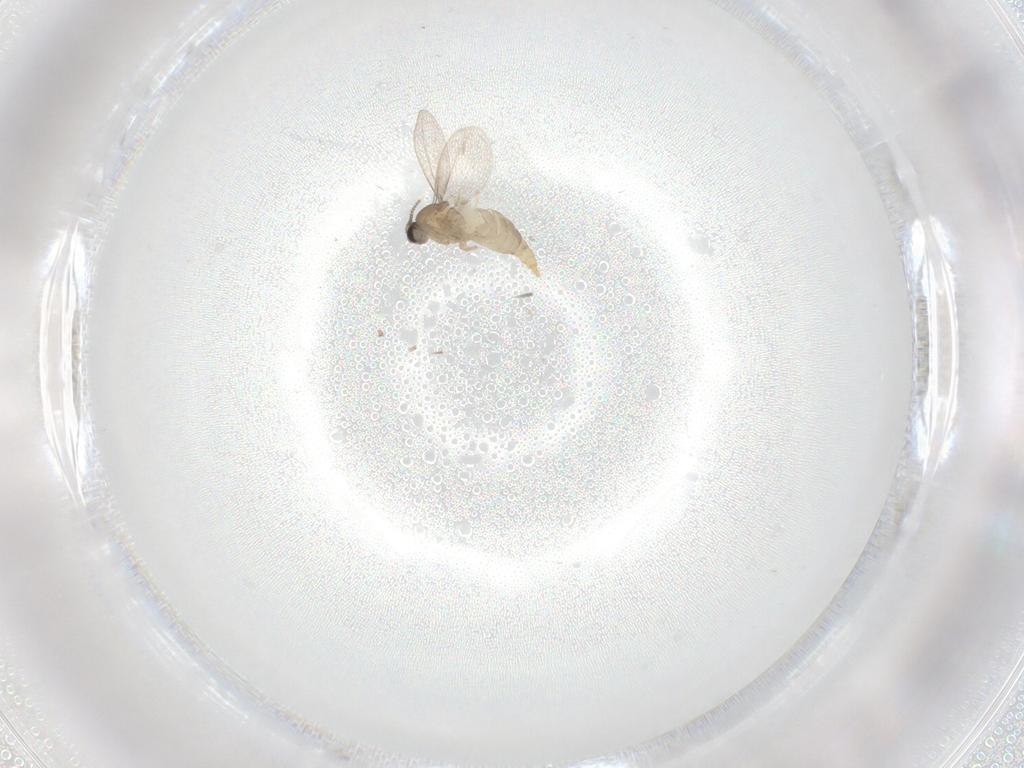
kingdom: Animalia
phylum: Arthropoda
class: Insecta
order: Diptera
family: Sciaridae
